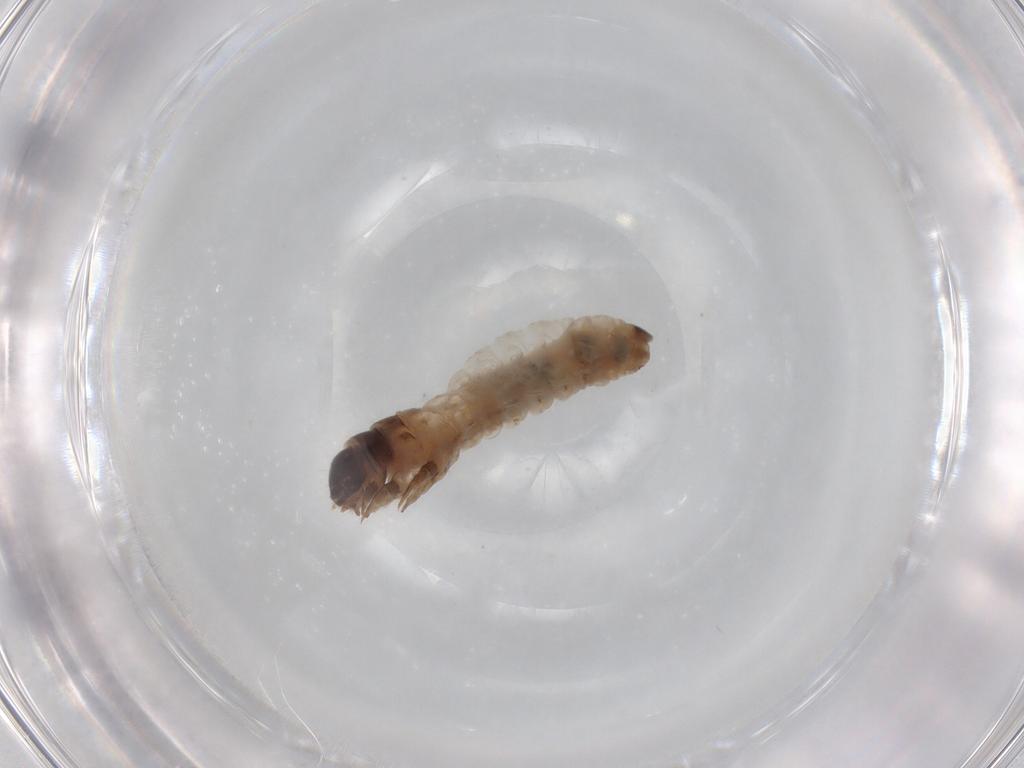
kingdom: Animalia
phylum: Arthropoda
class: Insecta
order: Lepidoptera
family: Psychidae
